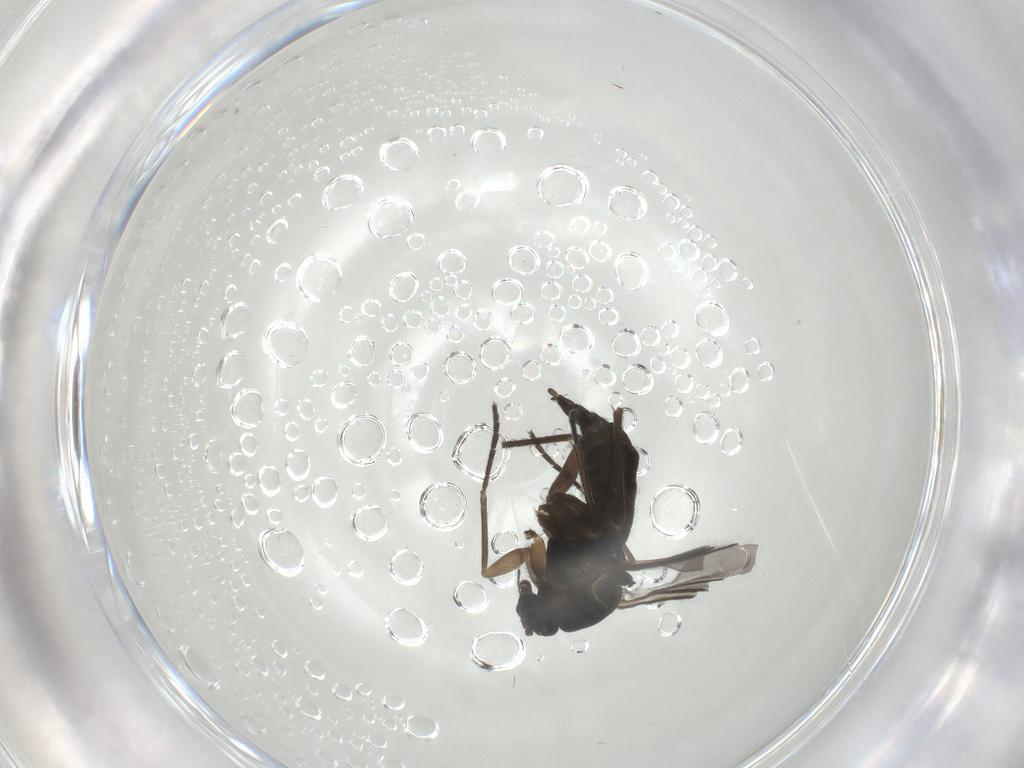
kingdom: Animalia
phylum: Arthropoda
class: Insecta
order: Diptera
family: Sciaridae
